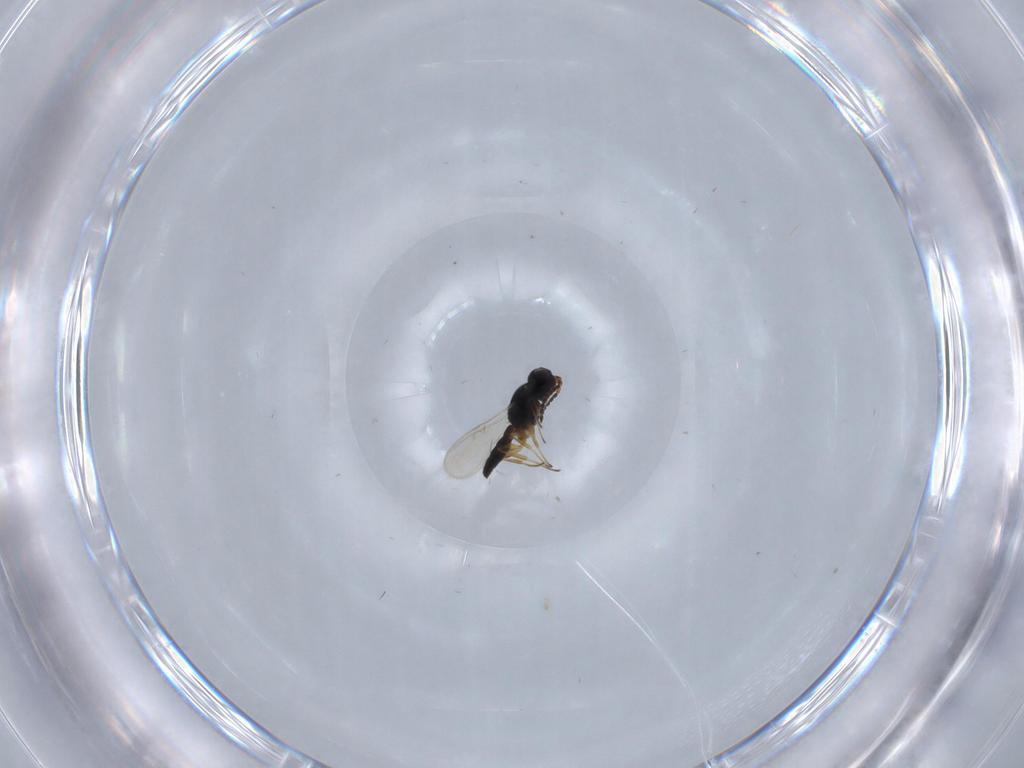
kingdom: Animalia
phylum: Arthropoda
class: Insecta
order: Hymenoptera
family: Scelionidae
